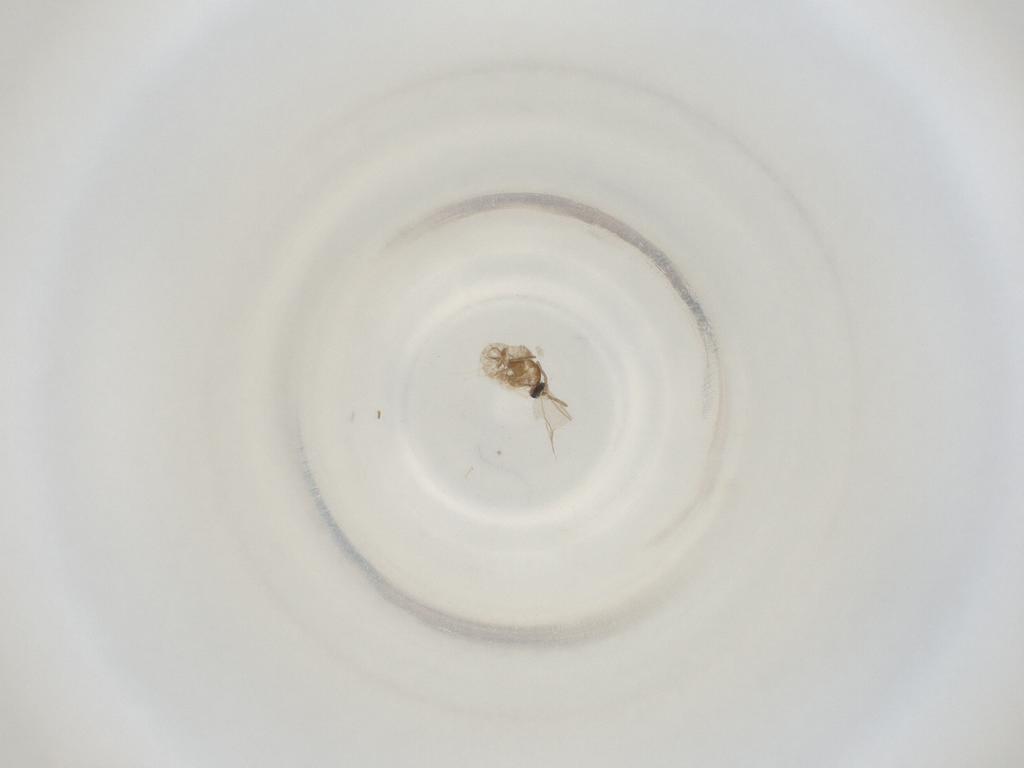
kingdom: Animalia
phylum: Arthropoda
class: Insecta
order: Diptera
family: Cecidomyiidae
